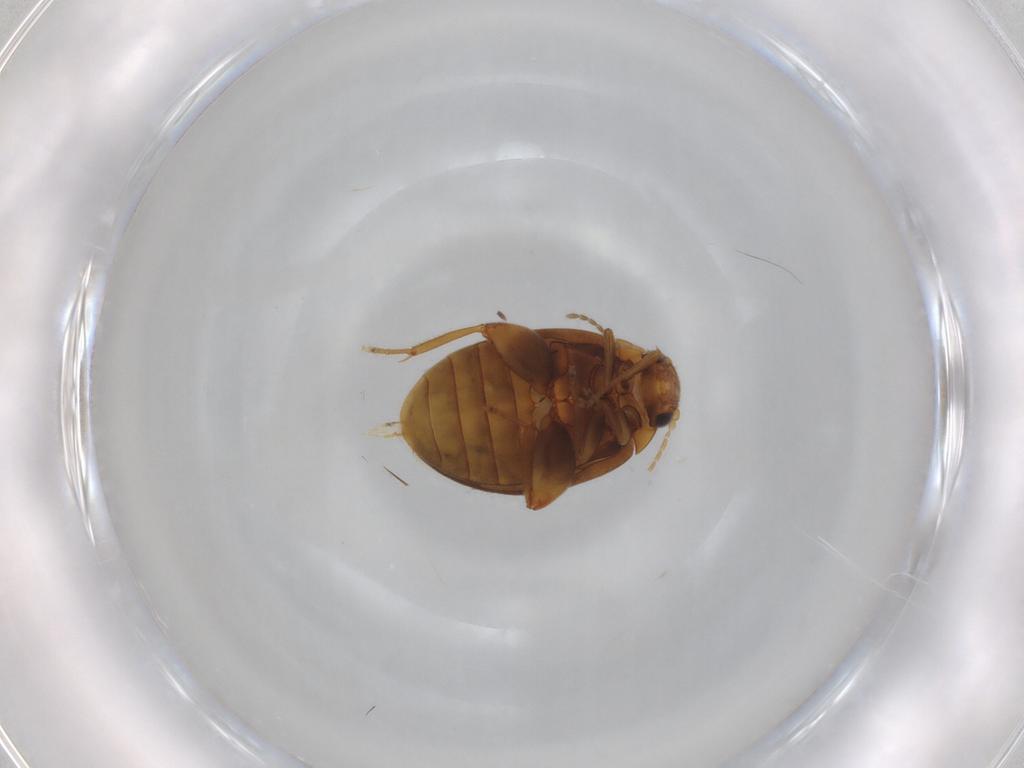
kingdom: Animalia
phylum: Arthropoda
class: Insecta
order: Coleoptera
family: Scirtidae
